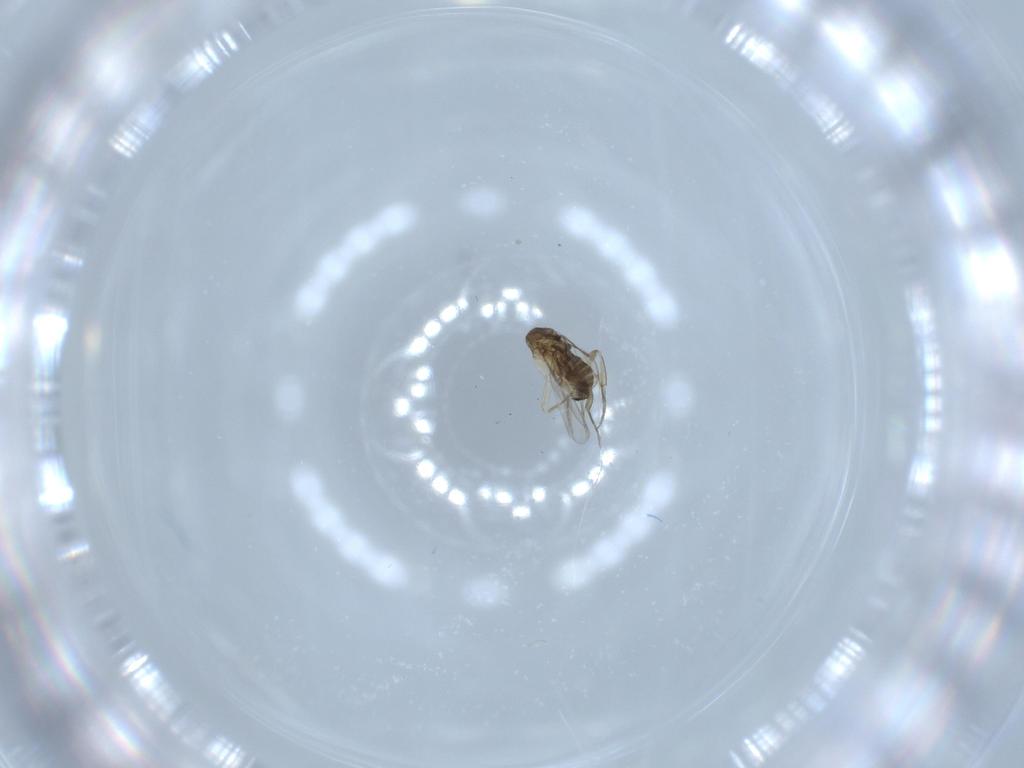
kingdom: Animalia
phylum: Arthropoda
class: Insecta
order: Diptera
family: Phoridae
